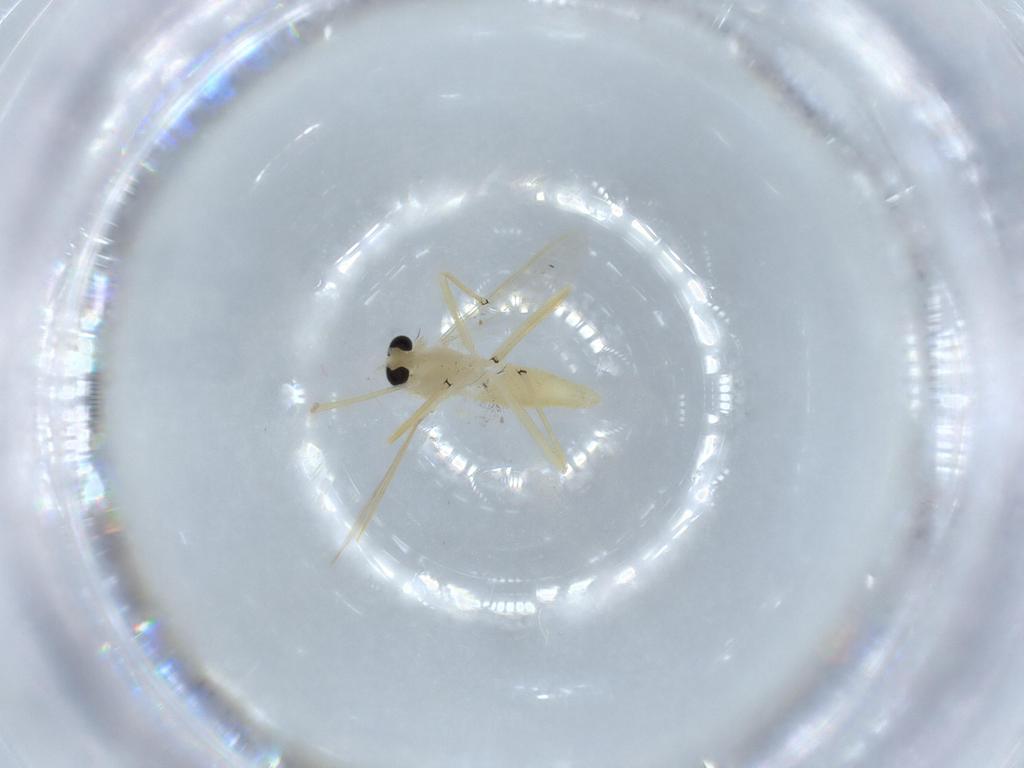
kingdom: Animalia
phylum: Arthropoda
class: Insecta
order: Diptera
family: Chironomidae
